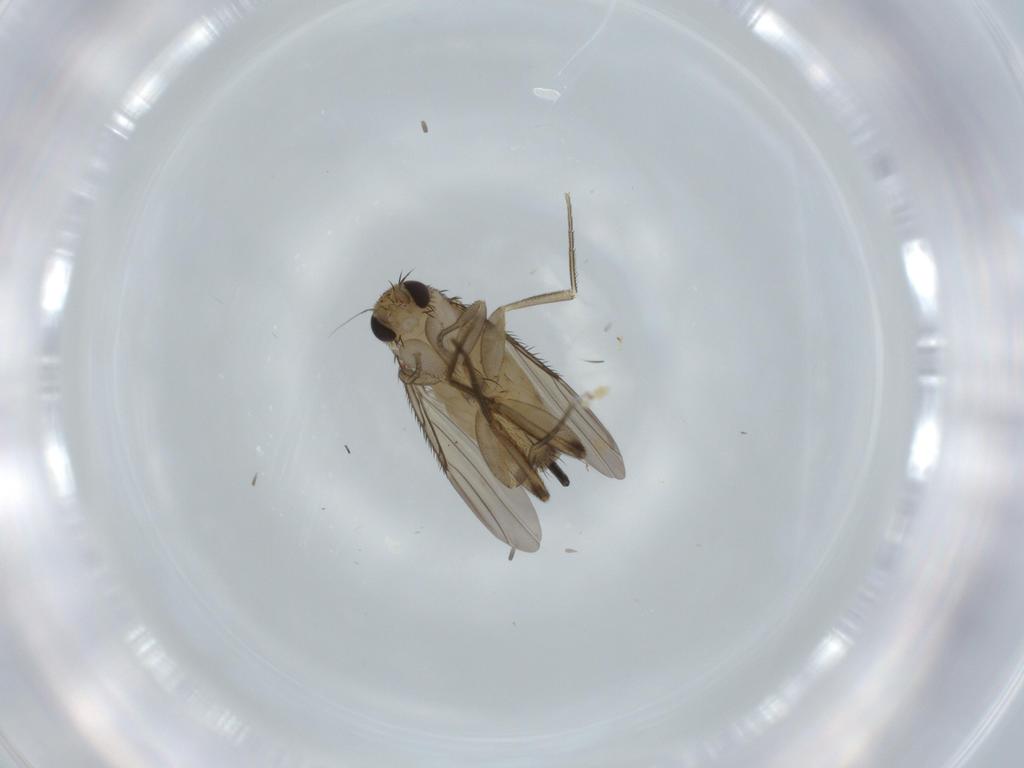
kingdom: Animalia
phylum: Arthropoda
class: Insecta
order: Diptera
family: Phoridae
